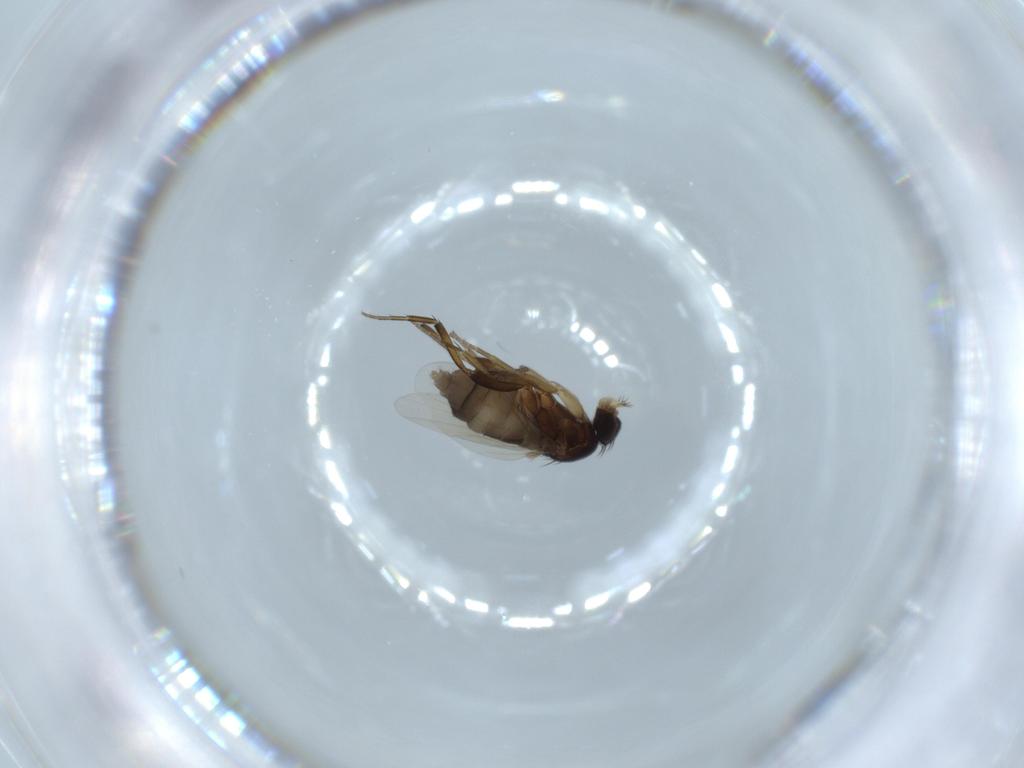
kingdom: Animalia
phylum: Arthropoda
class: Insecta
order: Diptera
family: Phoridae
